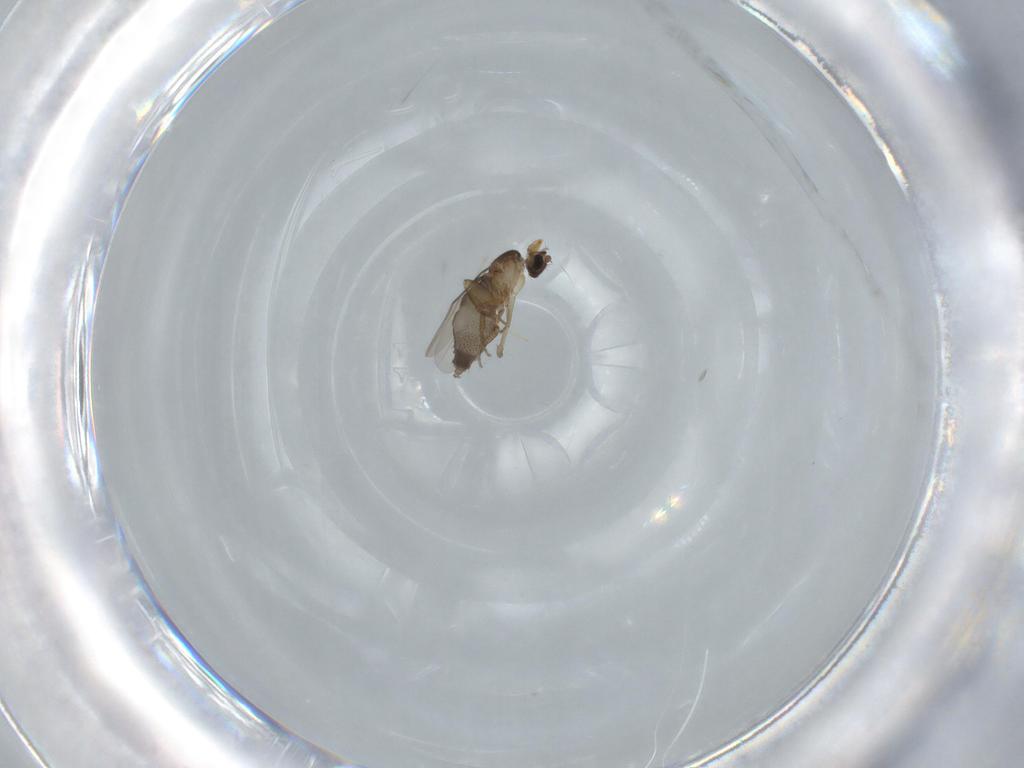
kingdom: Animalia
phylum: Arthropoda
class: Insecta
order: Diptera
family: Phoridae
